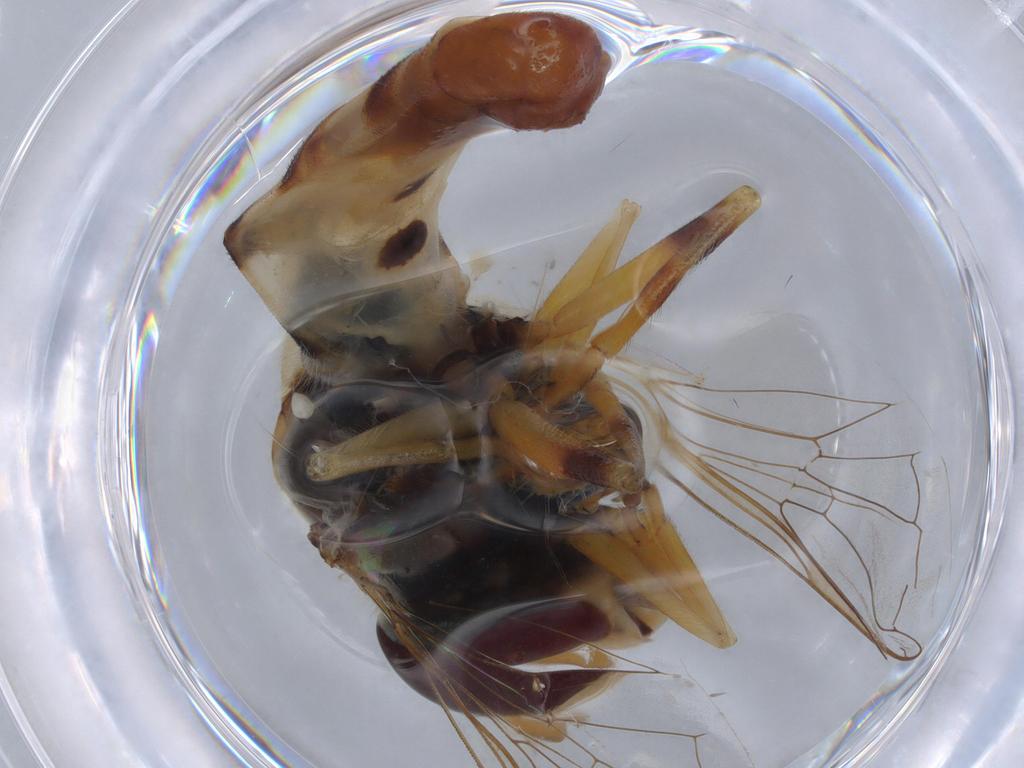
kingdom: Animalia
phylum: Arthropoda
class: Insecta
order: Diptera
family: Agromyzidae
